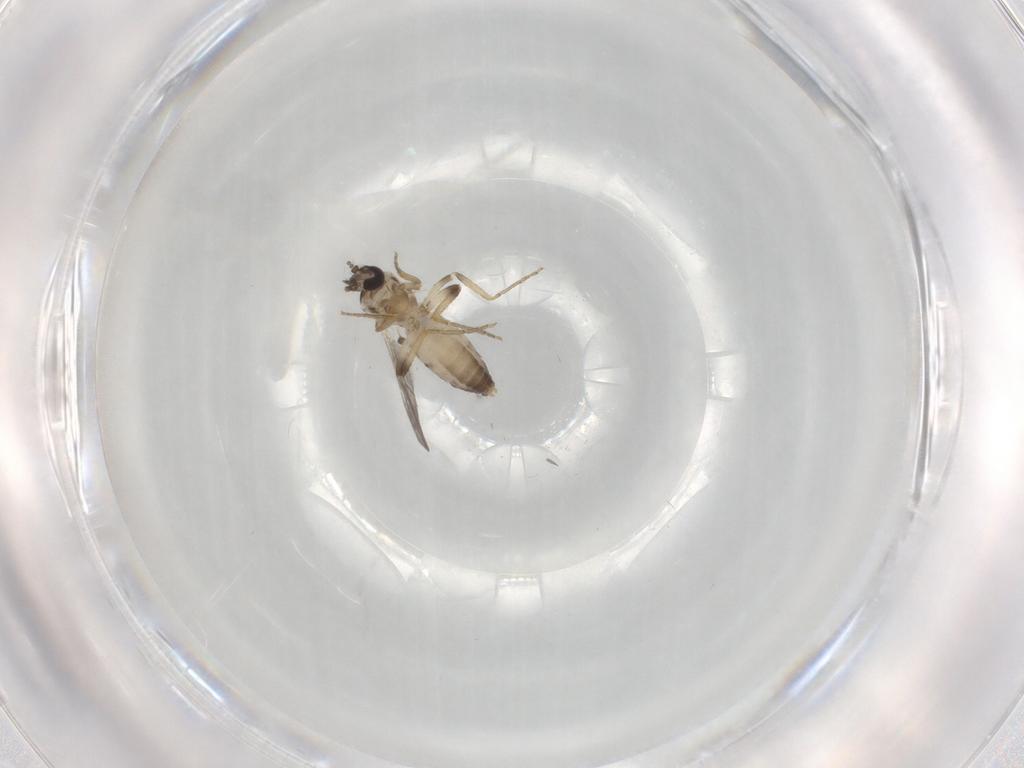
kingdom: Animalia
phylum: Arthropoda
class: Insecta
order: Diptera
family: Ceratopogonidae
